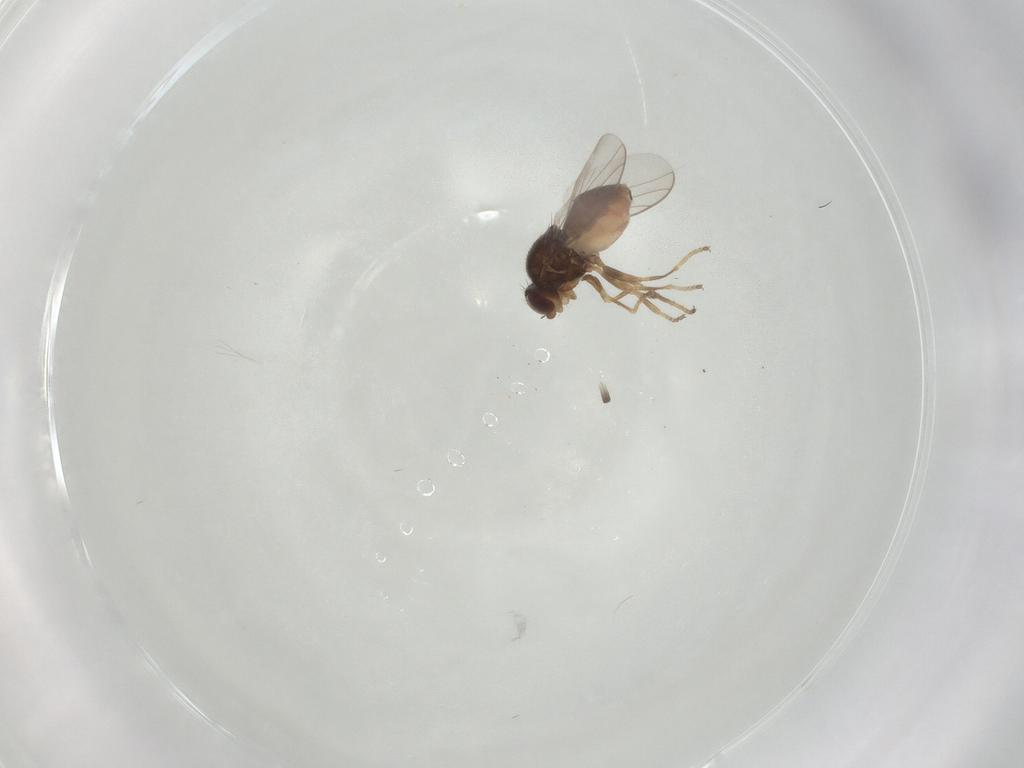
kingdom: Animalia
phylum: Arthropoda
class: Insecta
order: Diptera
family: Chloropidae
